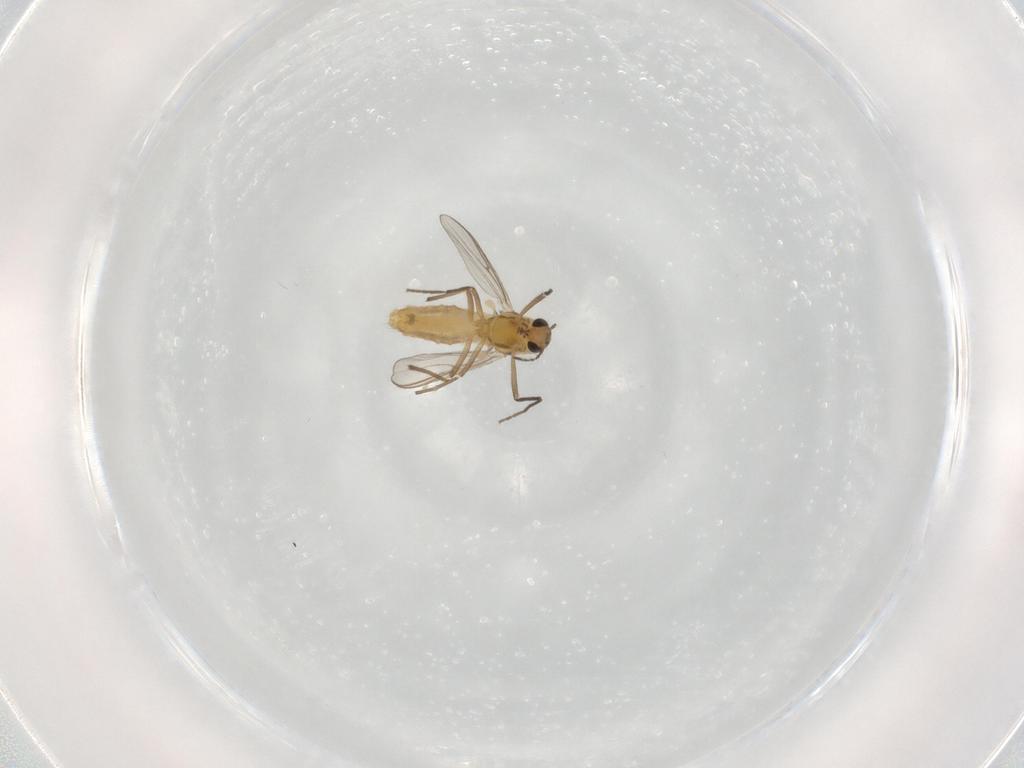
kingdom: Animalia
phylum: Arthropoda
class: Insecta
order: Diptera
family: Chironomidae
